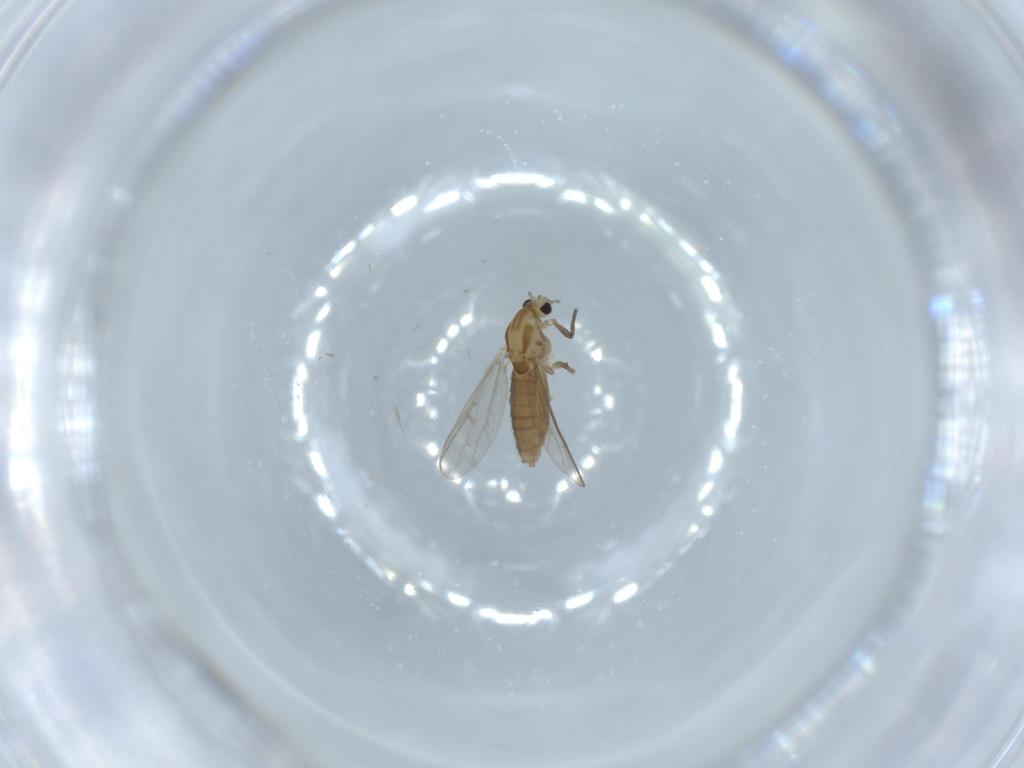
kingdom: Animalia
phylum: Arthropoda
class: Insecta
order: Diptera
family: Chironomidae
